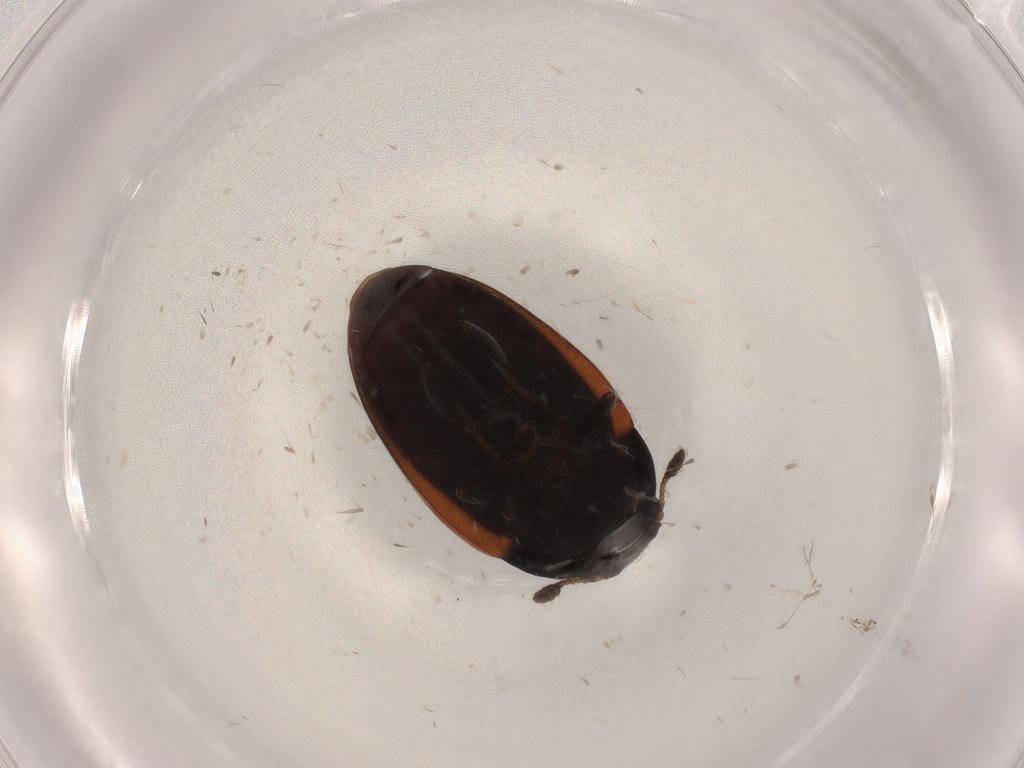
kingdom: Animalia
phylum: Arthropoda
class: Insecta
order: Coleoptera
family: Erotylidae
